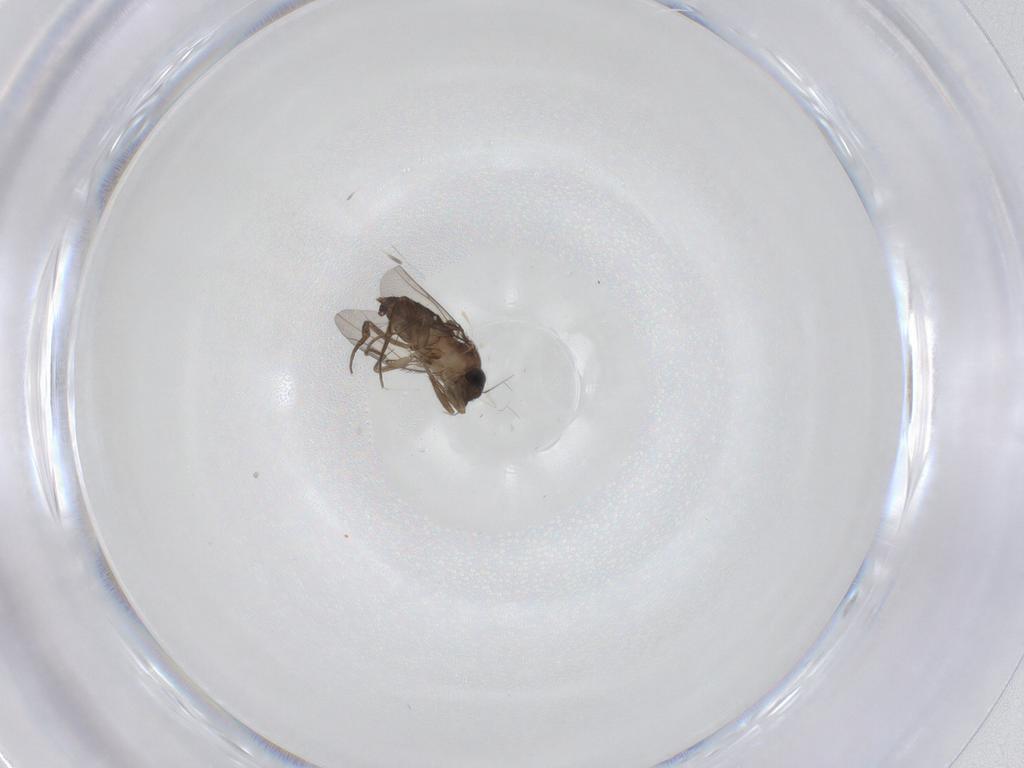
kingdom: Animalia
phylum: Arthropoda
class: Insecta
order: Diptera
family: Phoridae
